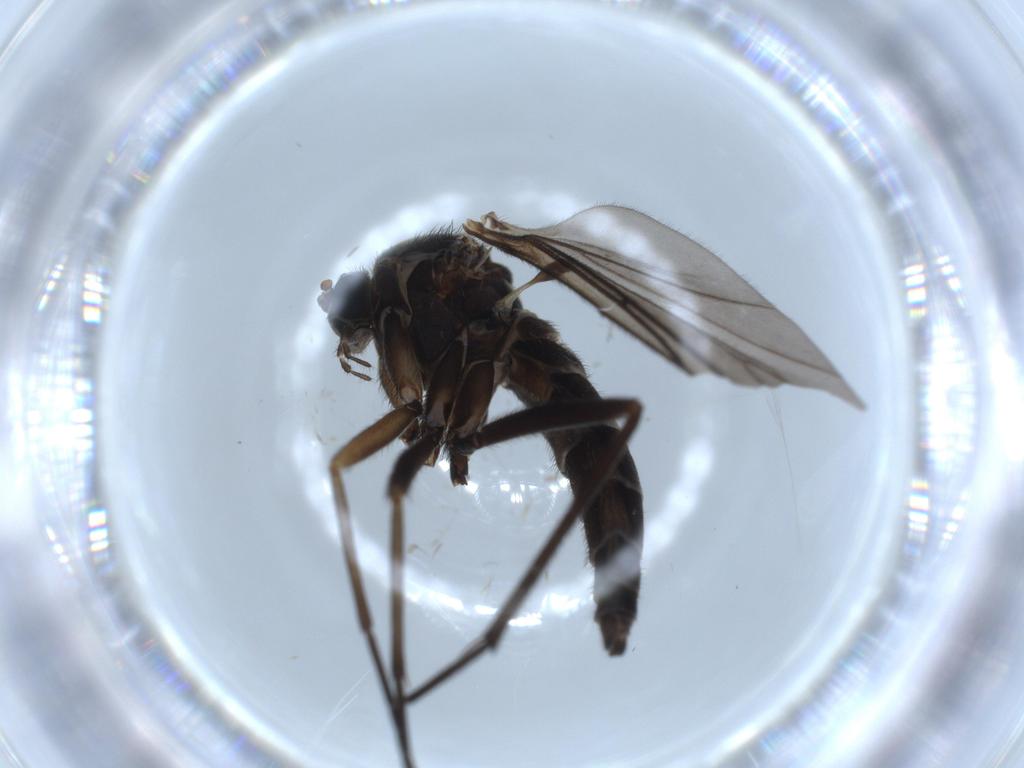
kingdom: Animalia
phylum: Arthropoda
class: Insecta
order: Diptera
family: Sciaridae
